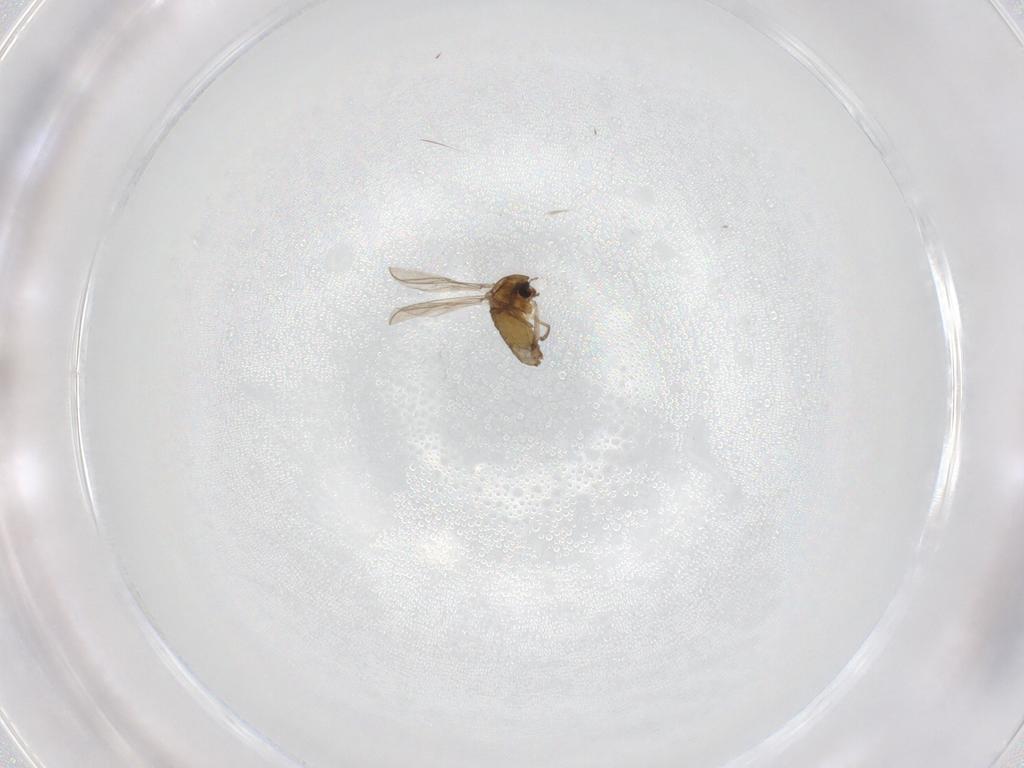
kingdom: Animalia
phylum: Arthropoda
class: Insecta
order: Diptera
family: Chironomidae
